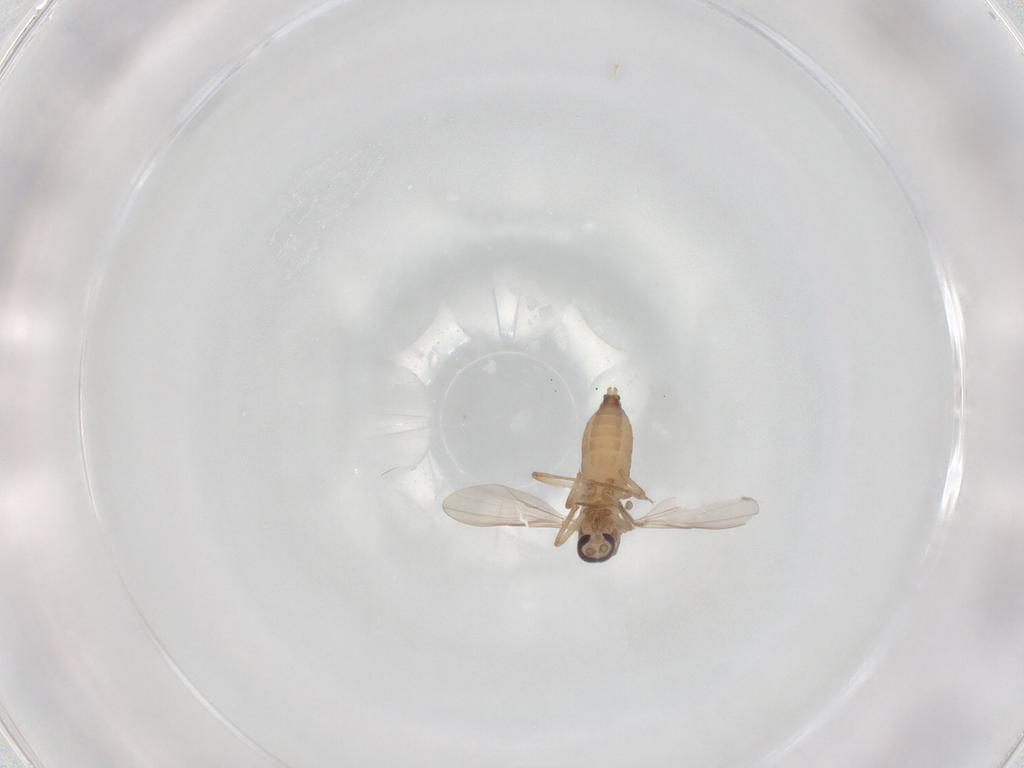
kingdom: Animalia
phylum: Arthropoda
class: Insecta
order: Diptera
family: Ceratopogonidae
